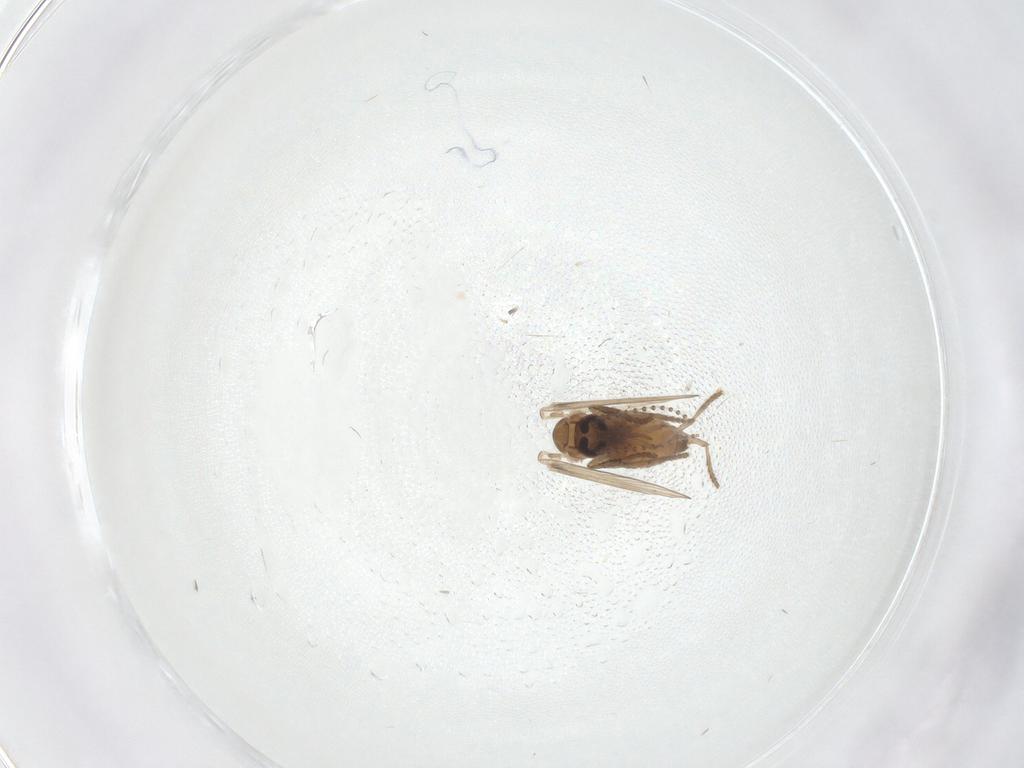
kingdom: Animalia
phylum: Arthropoda
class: Insecta
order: Diptera
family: Psychodidae
